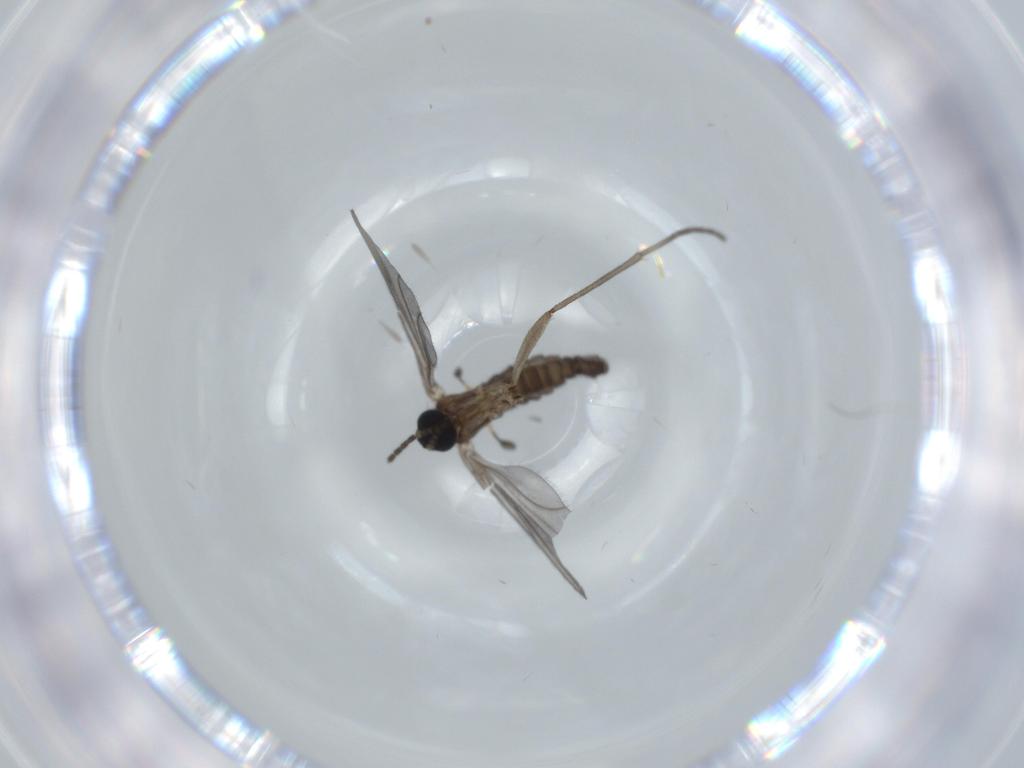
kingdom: Animalia
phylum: Arthropoda
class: Insecta
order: Diptera
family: Sciaridae
